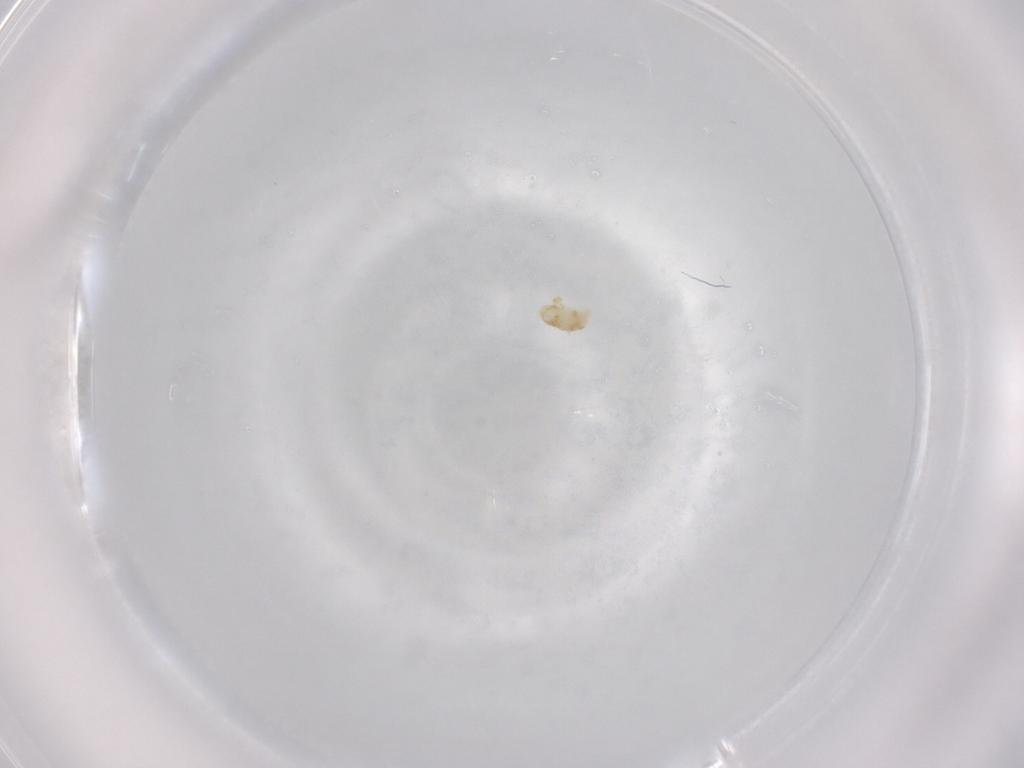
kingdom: Animalia
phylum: Arthropoda
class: Arachnida
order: Trombidiformes
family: Eupodidae
